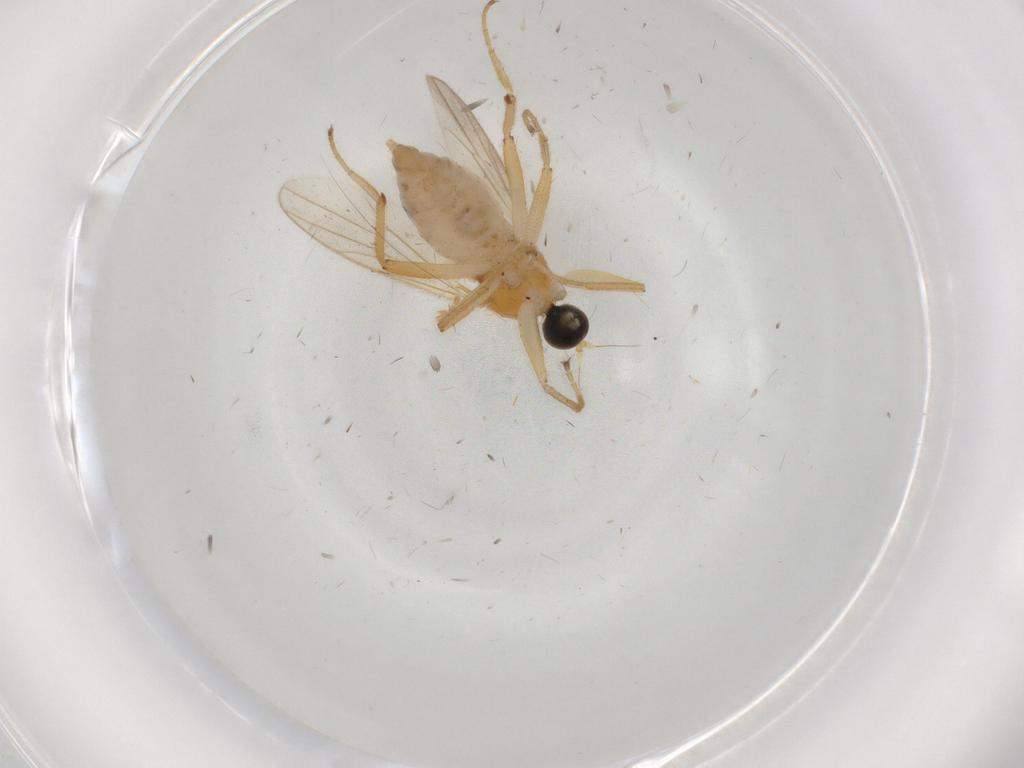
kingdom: Animalia
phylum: Arthropoda
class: Insecta
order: Diptera
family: Hybotidae
